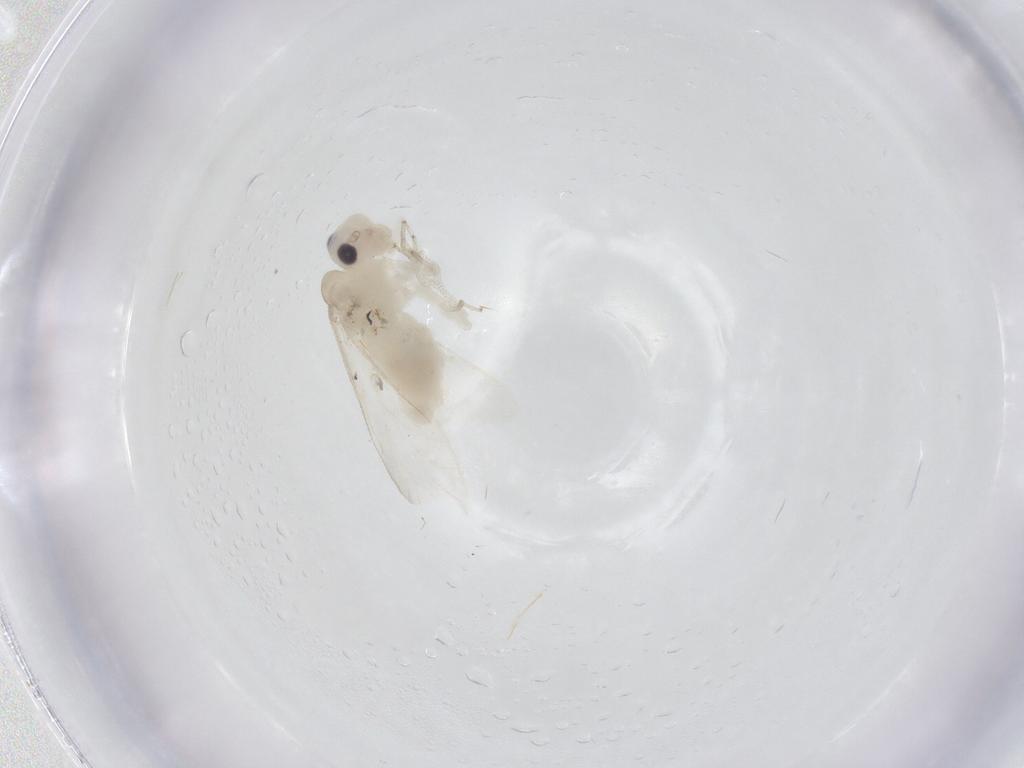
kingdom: Animalia
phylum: Arthropoda
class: Insecta
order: Psocodea
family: Caeciliusidae
